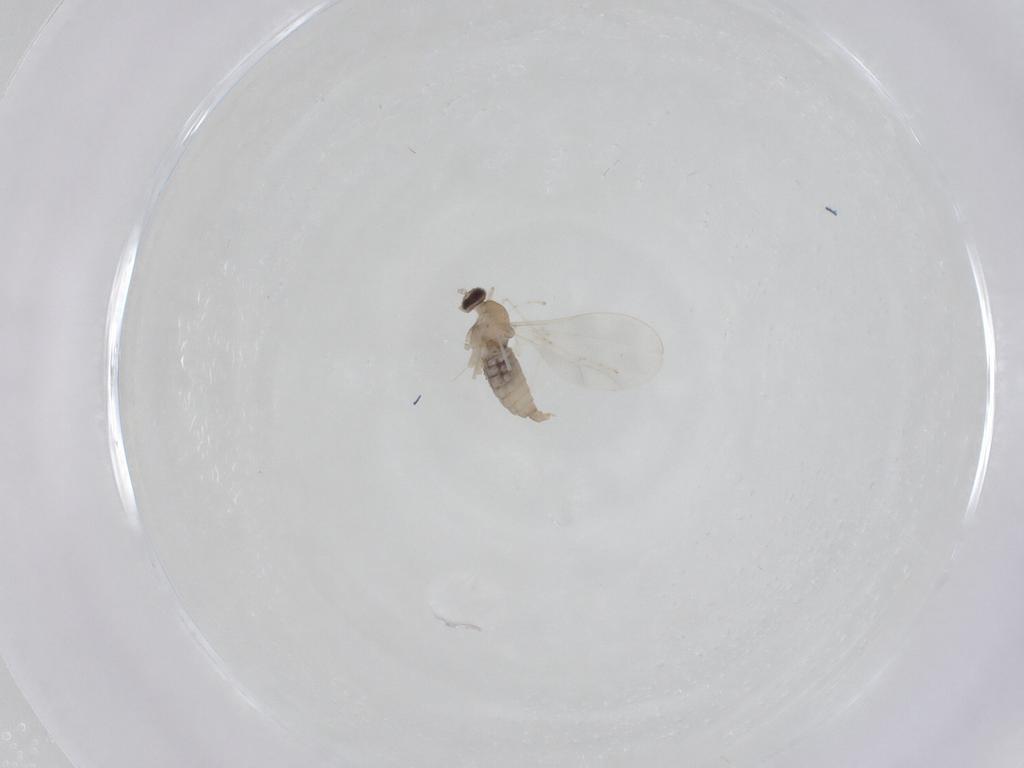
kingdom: Animalia
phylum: Arthropoda
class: Insecta
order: Diptera
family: Cecidomyiidae
